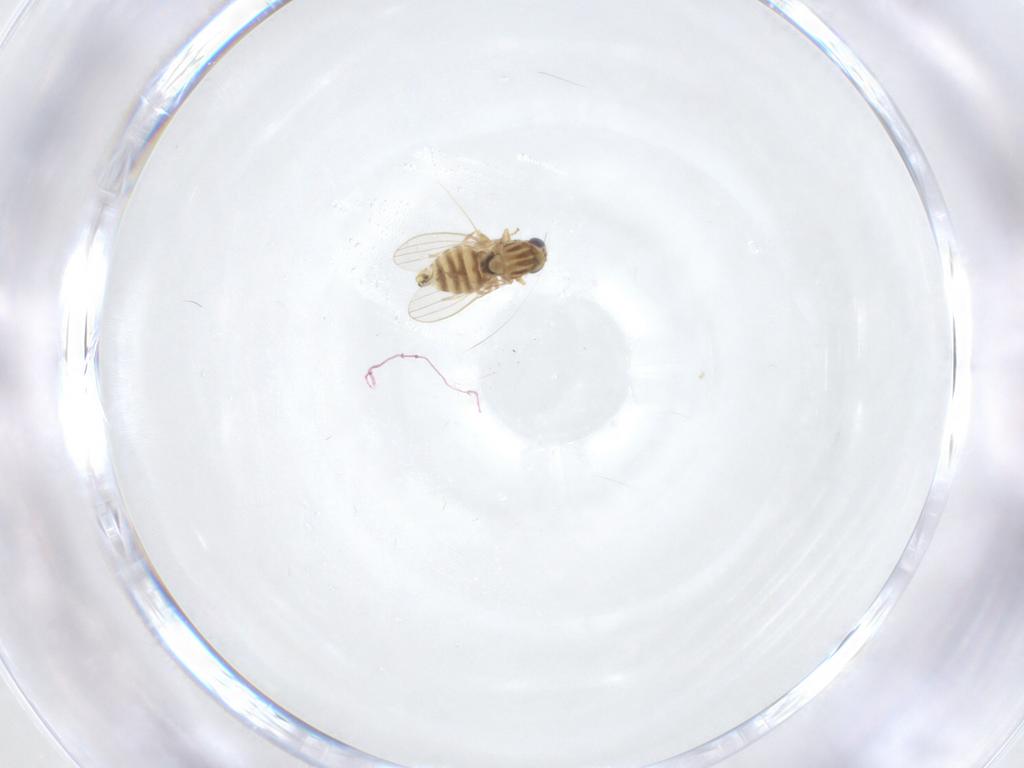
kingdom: Animalia
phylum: Arthropoda
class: Insecta
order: Diptera
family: Chyromyidae
